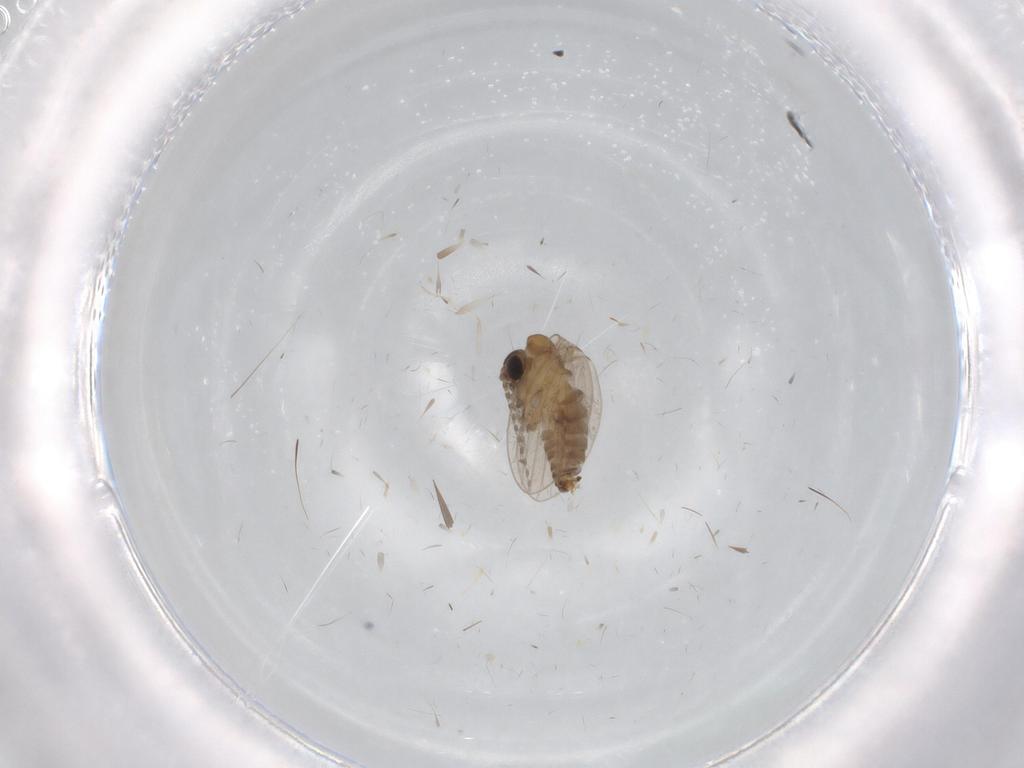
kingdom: Animalia
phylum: Arthropoda
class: Insecta
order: Diptera
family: Cecidomyiidae
